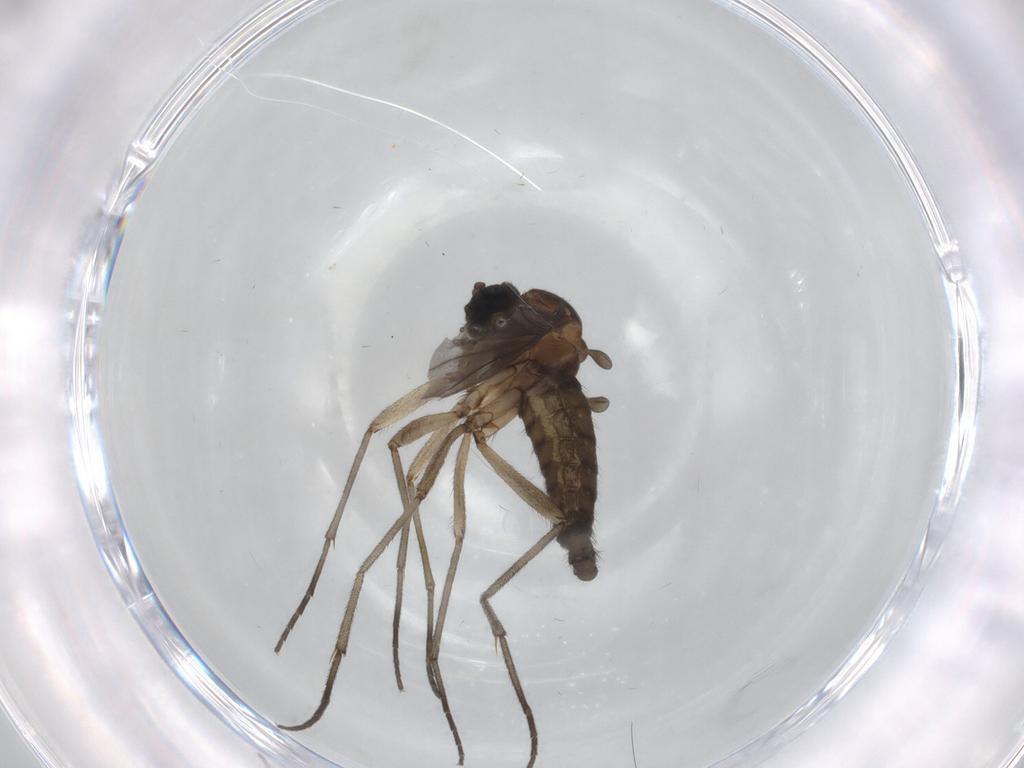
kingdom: Animalia
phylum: Arthropoda
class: Insecta
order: Diptera
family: Sciaridae
